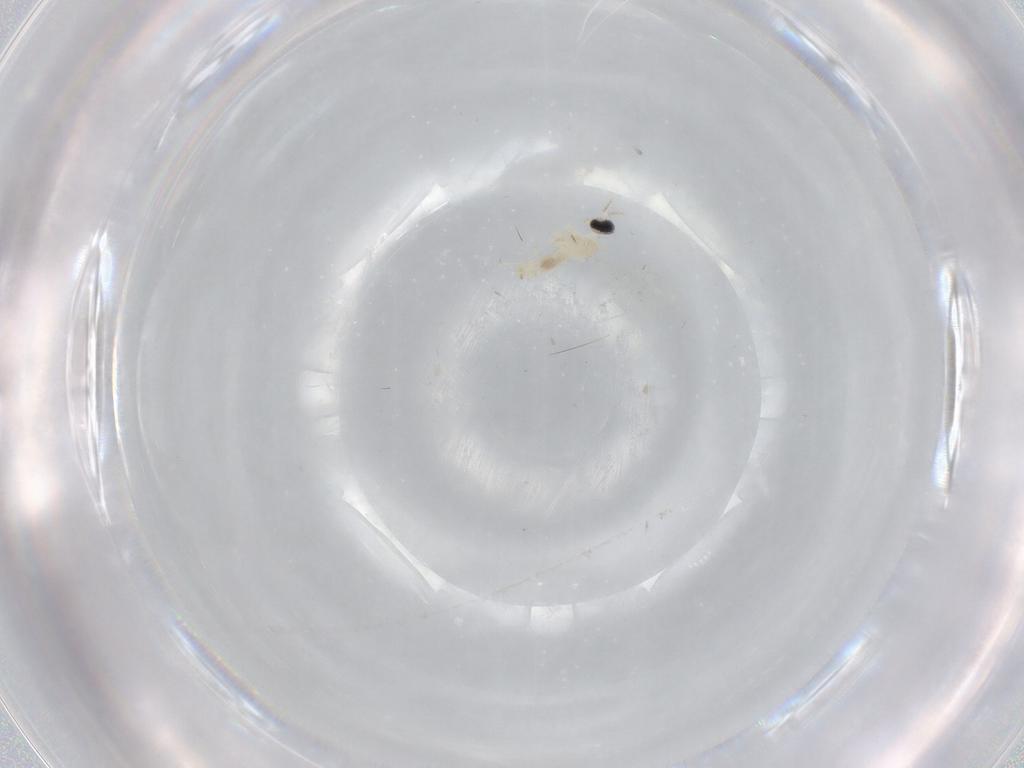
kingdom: Animalia
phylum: Arthropoda
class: Insecta
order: Diptera
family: Cecidomyiidae
